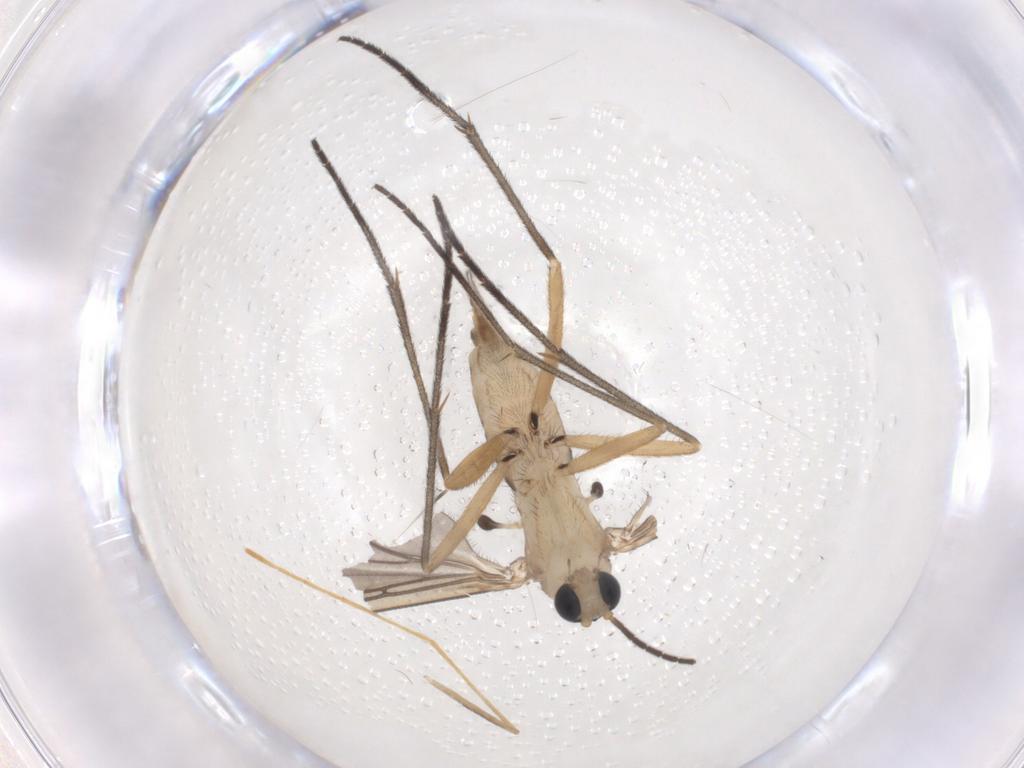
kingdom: Animalia
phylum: Arthropoda
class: Insecta
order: Diptera
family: Sciaridae
